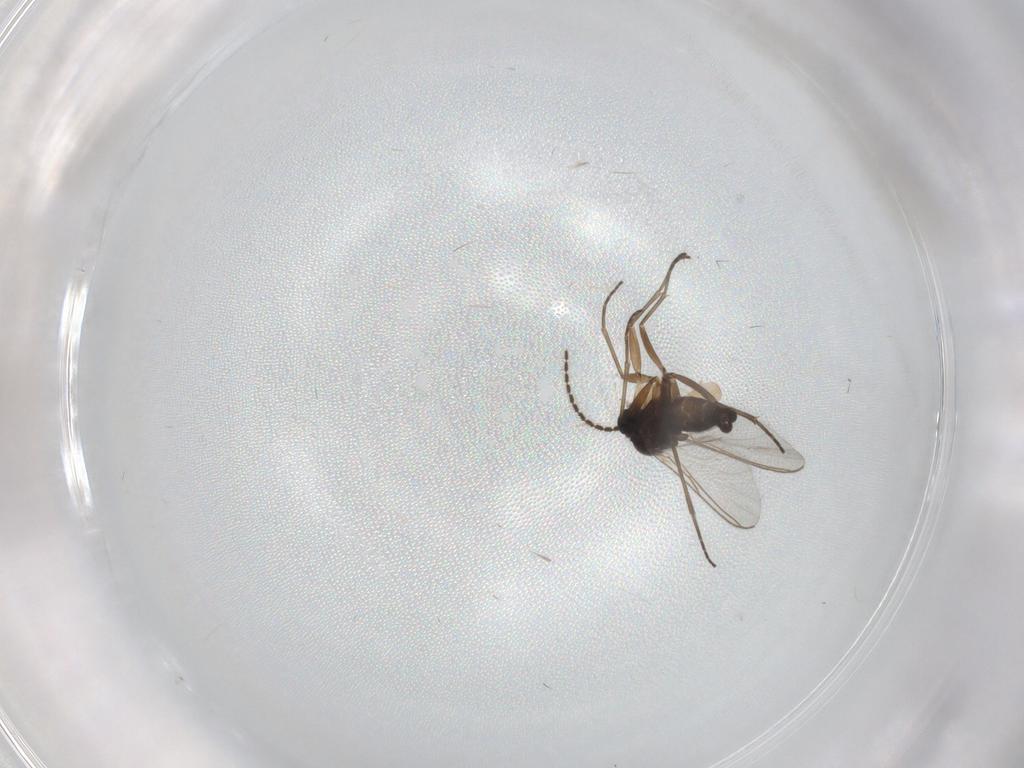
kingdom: Animalia
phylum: Arthropoda
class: Insecta
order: Diptera
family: Limoniidae
